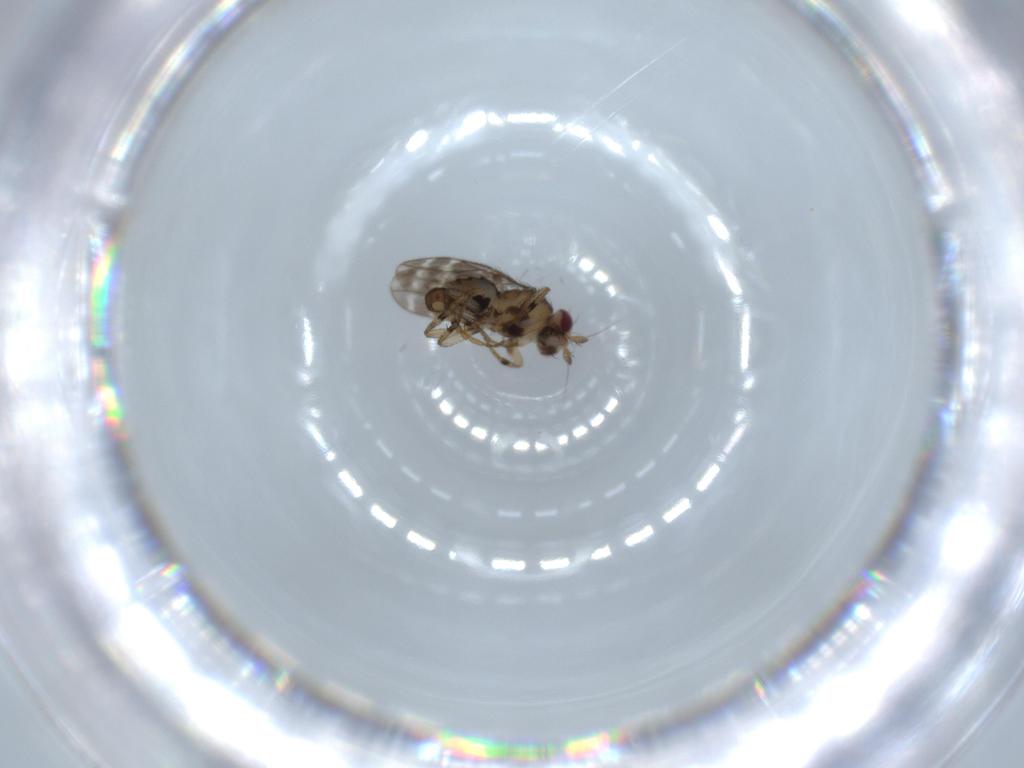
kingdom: Animalia
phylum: Arthropoda
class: Insecta
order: Diptera
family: Sphaeroceridae
